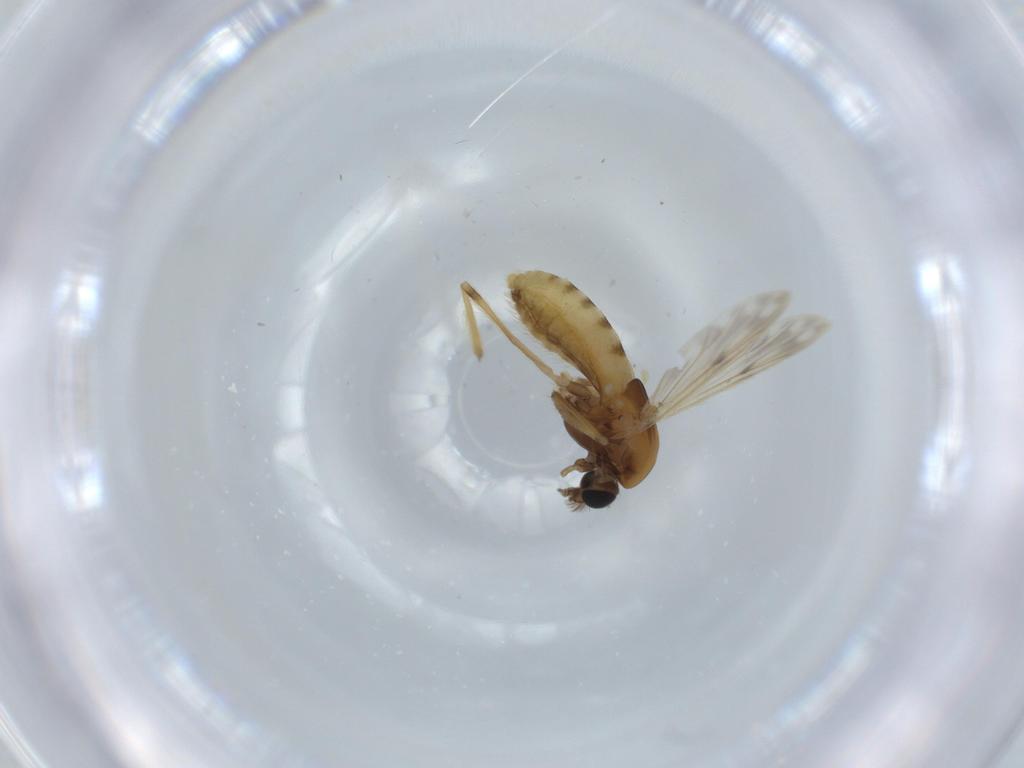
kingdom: Animalia
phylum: Arthropoda
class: Insecta
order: Diptera
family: Chironomidae
